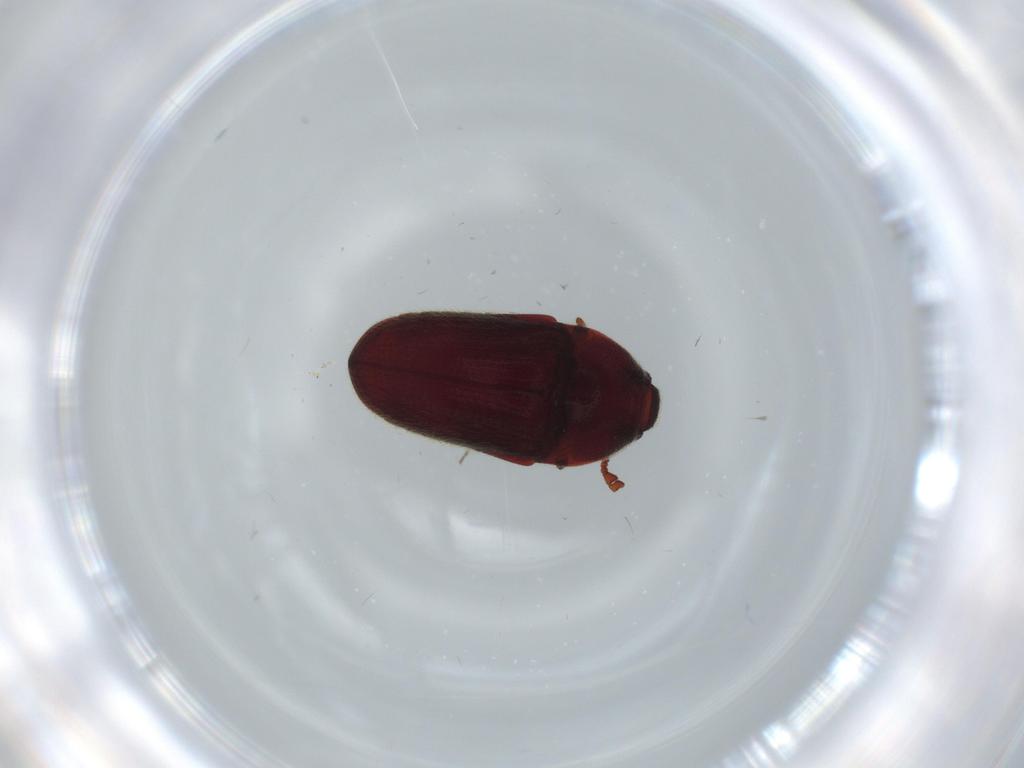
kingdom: Animalia
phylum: Arthropoda
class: Insecta
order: Coleoptera
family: Throscidae
